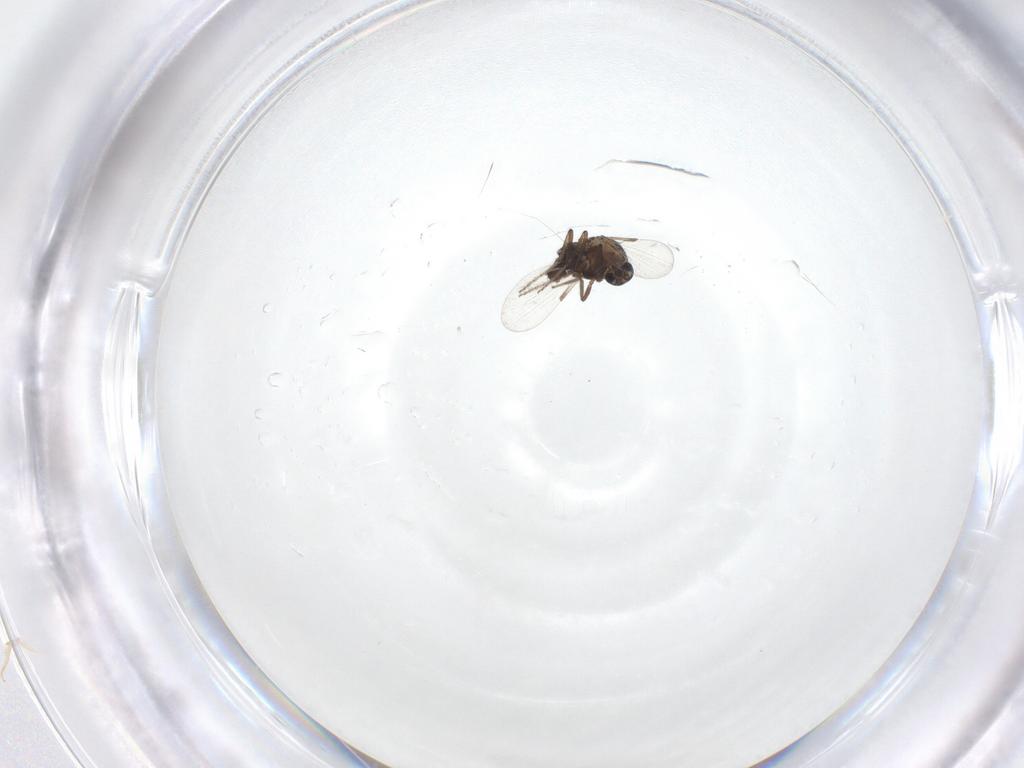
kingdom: Animalia
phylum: Arthropoda
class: Insecta
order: Diptera
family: Ceratopogonidae
